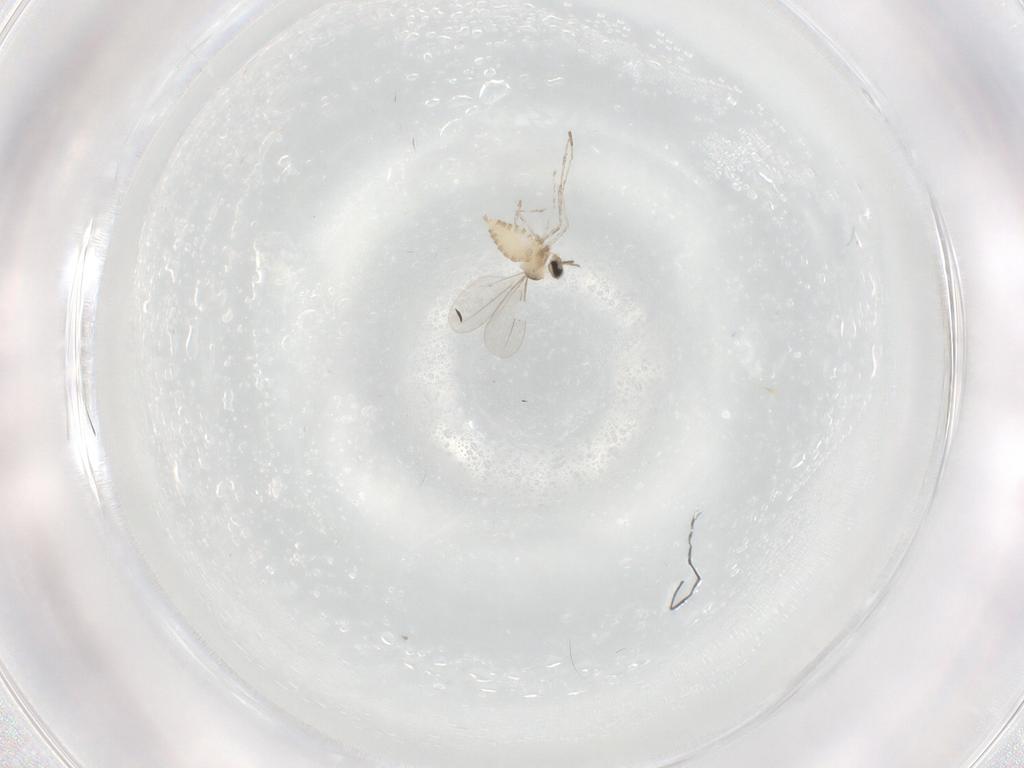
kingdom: Animalia
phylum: Arthropoda
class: Insecta
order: Diptera
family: Cecidomyiidae
